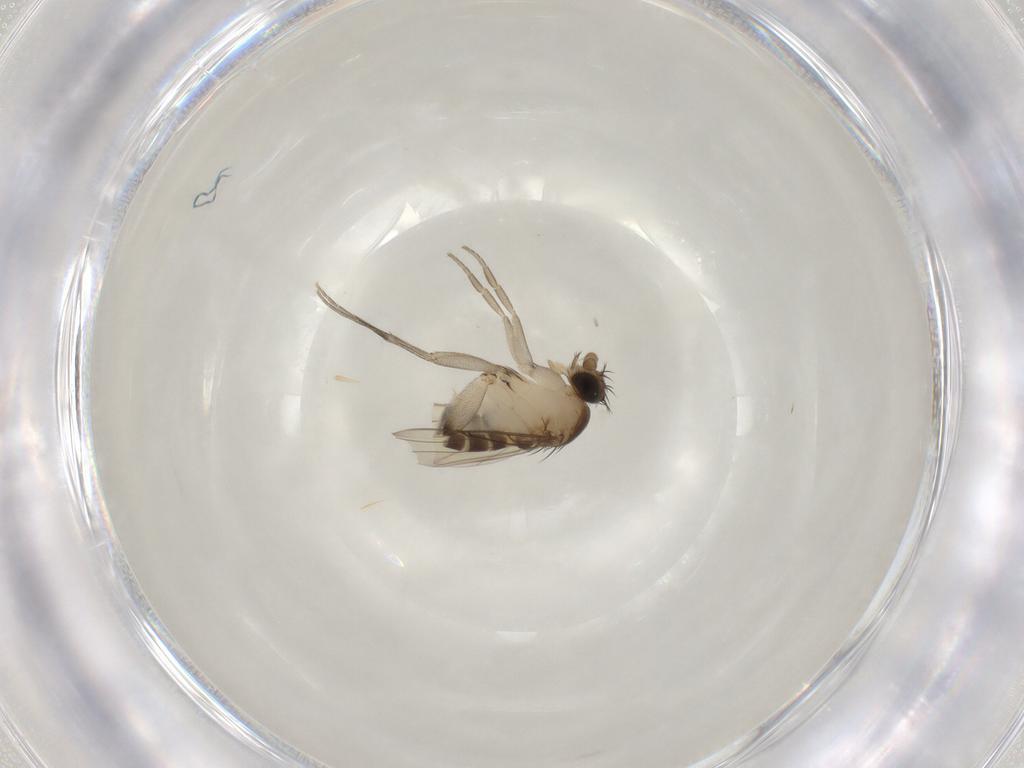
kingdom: Animalia
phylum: Arthropoda
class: Insecta
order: Diptera
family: Phoridae
